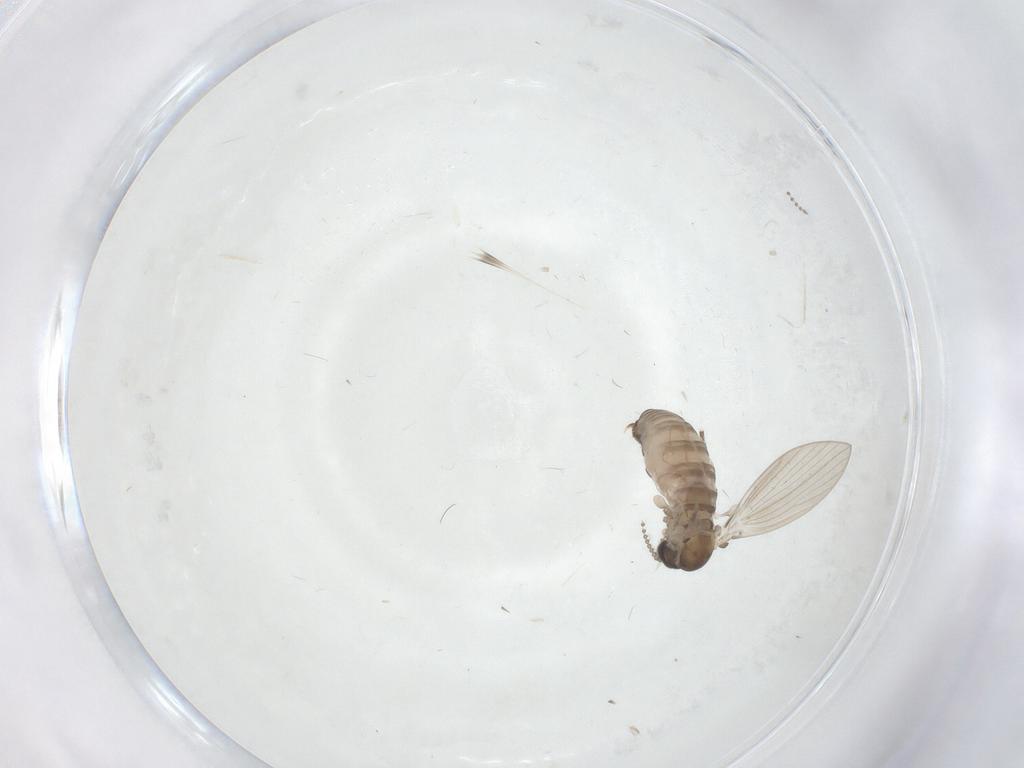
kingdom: Animalia
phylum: Arthropoda
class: Insecta
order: Diptera
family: Psychodidae
